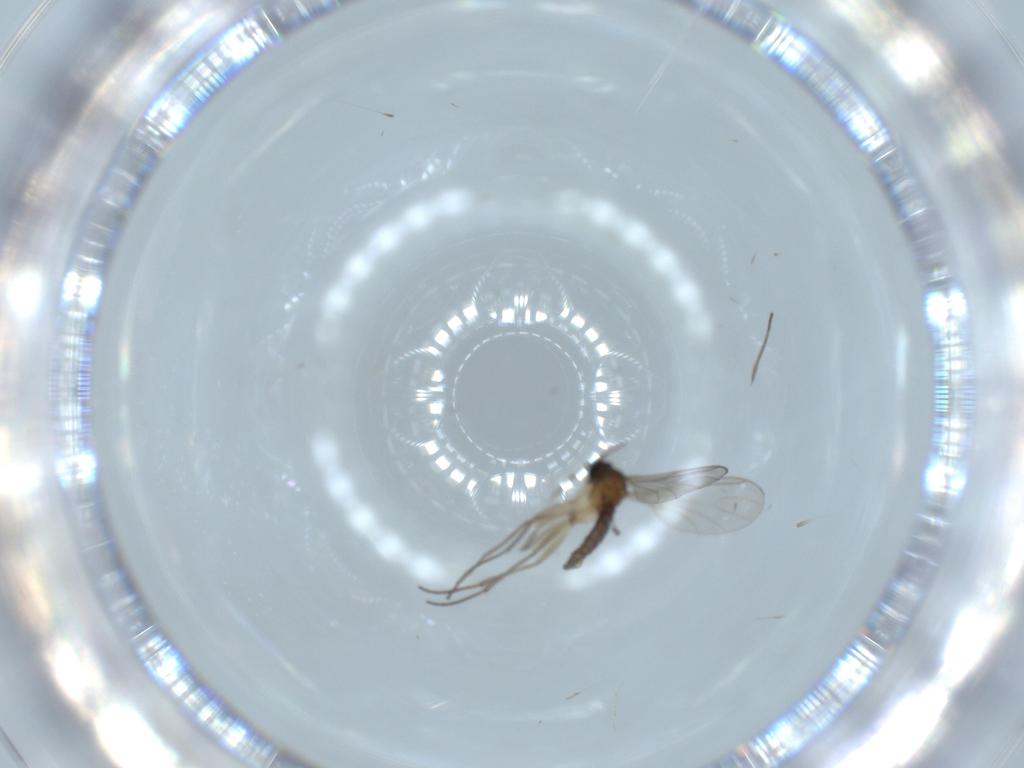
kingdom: Animalia
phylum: Arthropoda
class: Insecta
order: Diptera
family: Sciaridae
